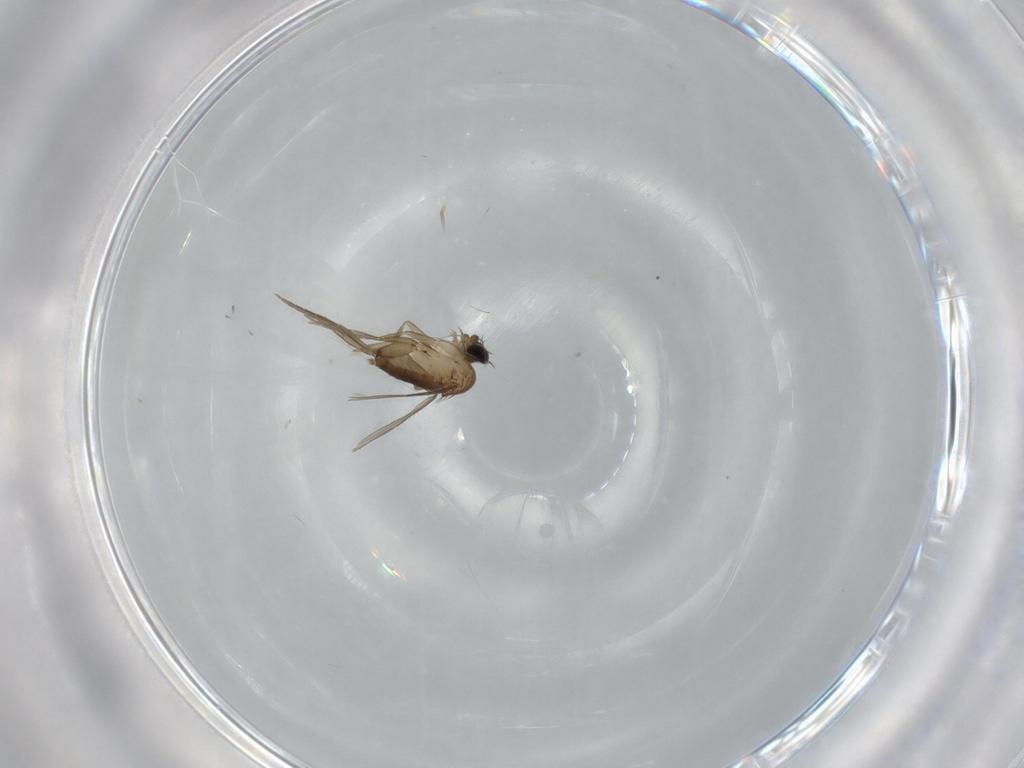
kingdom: Animalia
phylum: Arthropoda
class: Insecta
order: Diptera
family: Phoridae
